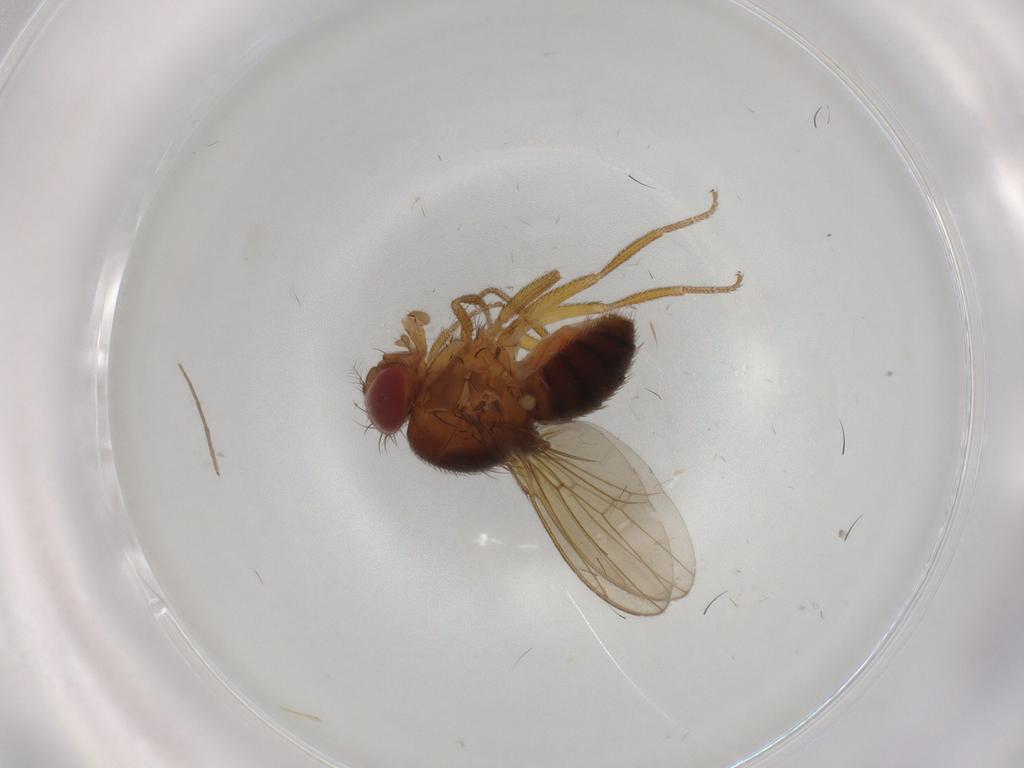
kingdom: Animalia
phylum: Arthropoda
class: Insecta
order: Diptera
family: Drosophilidae
